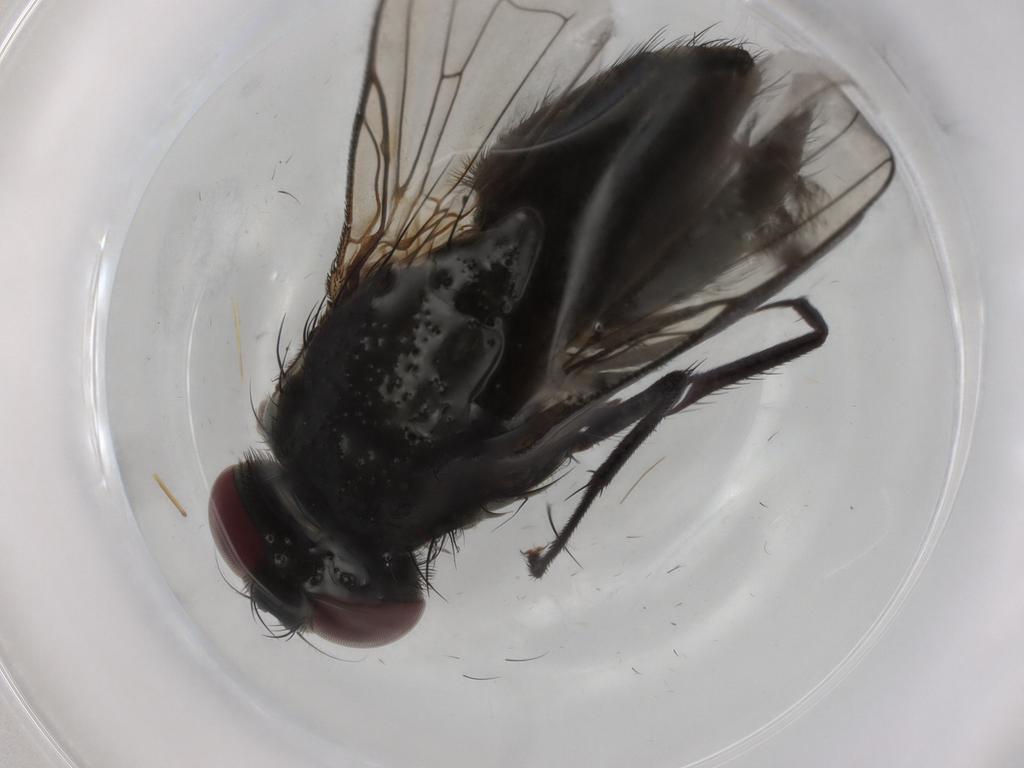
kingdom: Animalia
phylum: Arthropoda
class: Insecta
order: Diptera
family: Muscidae
